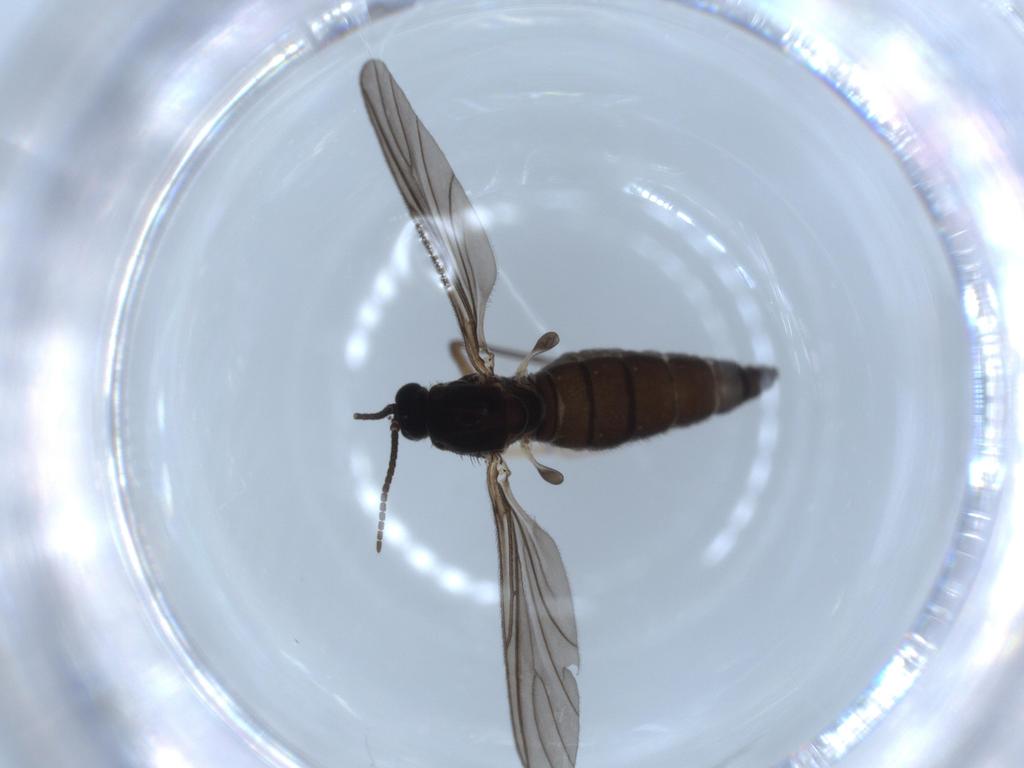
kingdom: Animalia
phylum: Arthropoda
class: Insecta
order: Diptera
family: Sciaridae
